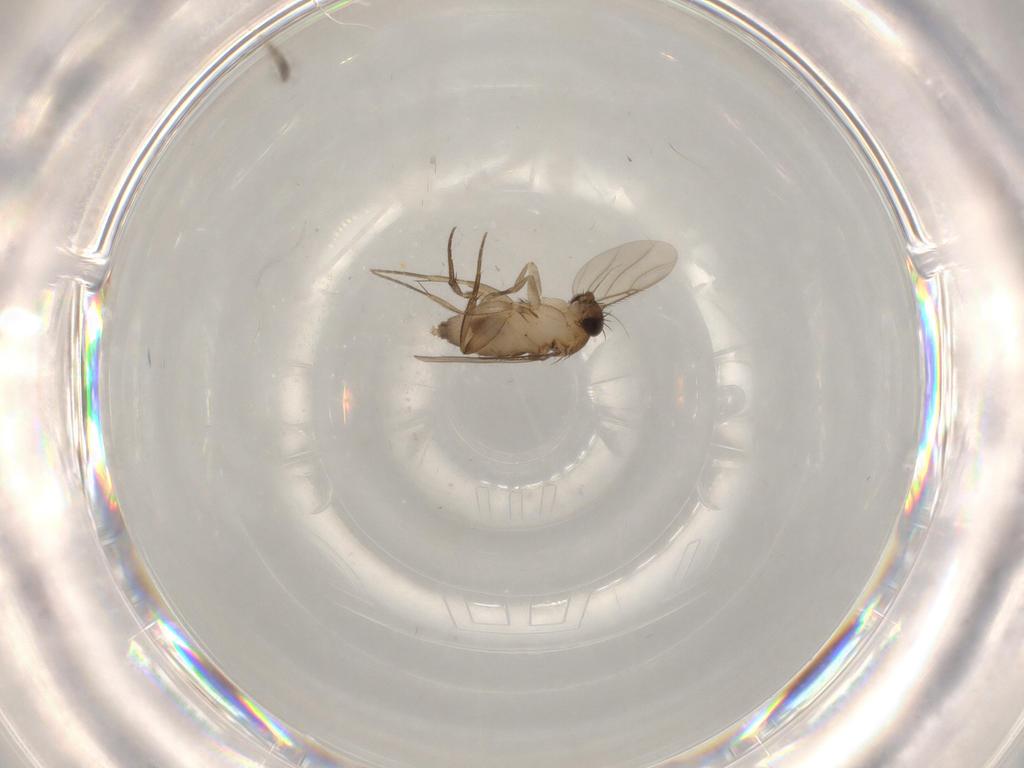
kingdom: Animalia
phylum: Arthropoda
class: Insecta
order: Diptera
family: Phoridae
